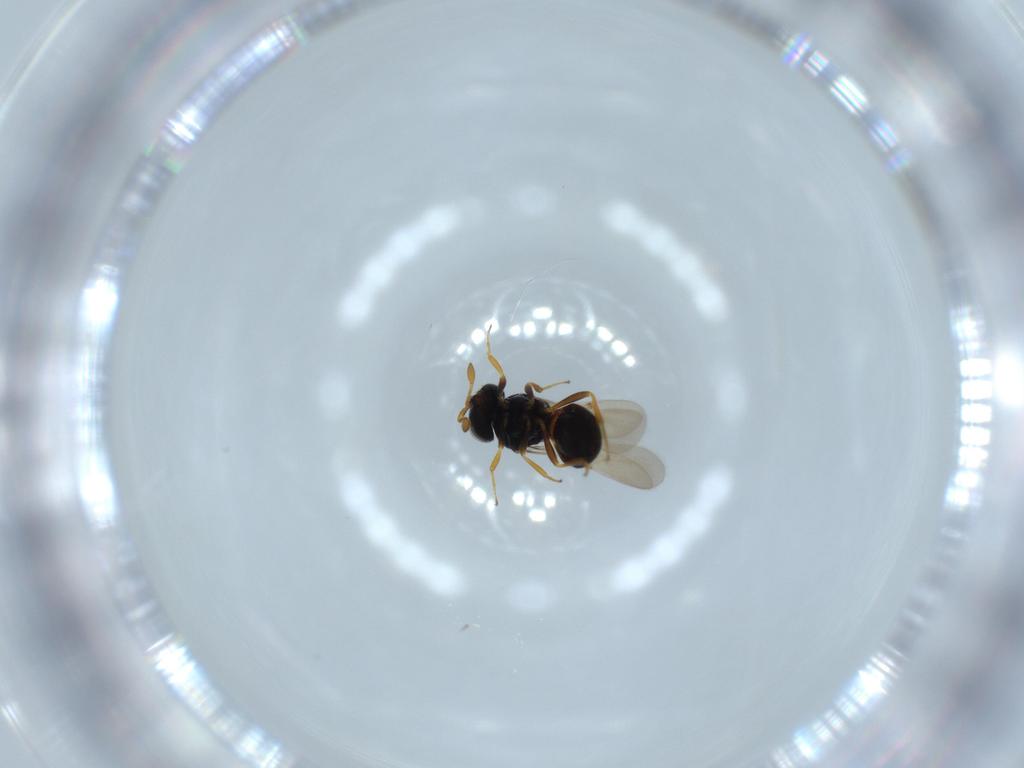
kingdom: Animalia
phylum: Arthropoda
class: Insecta
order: Hymenoptera
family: Scelionidae
